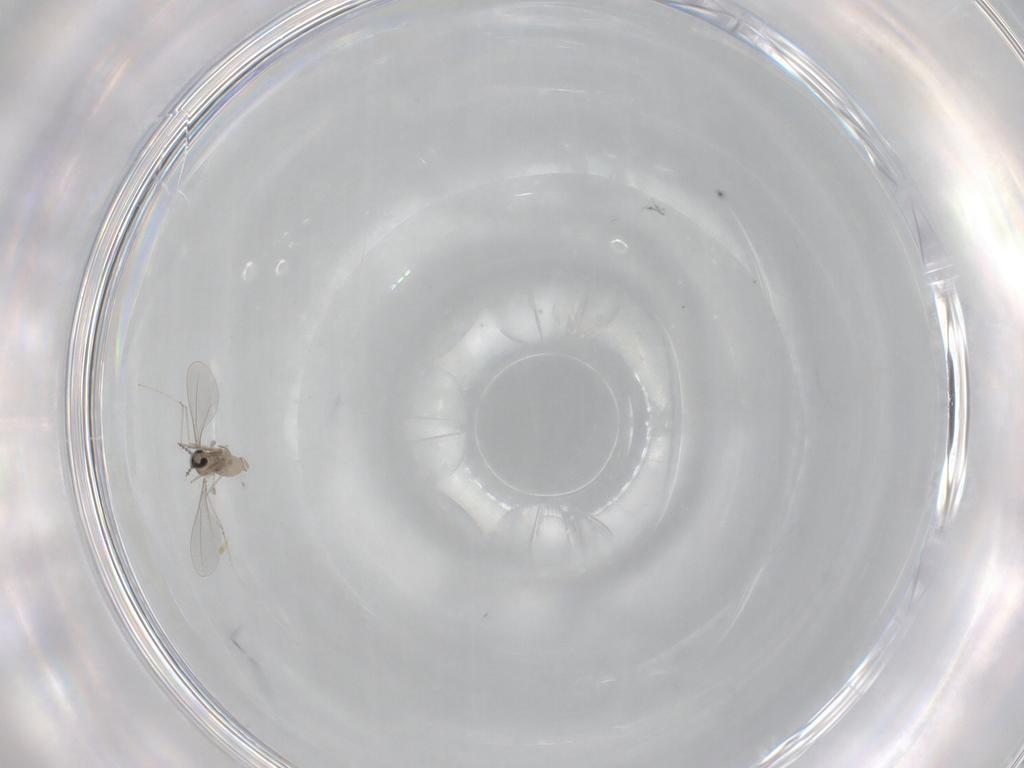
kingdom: Animalia
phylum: Arthropoda
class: Insecta
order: Diptera
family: Cecidomyiidae
